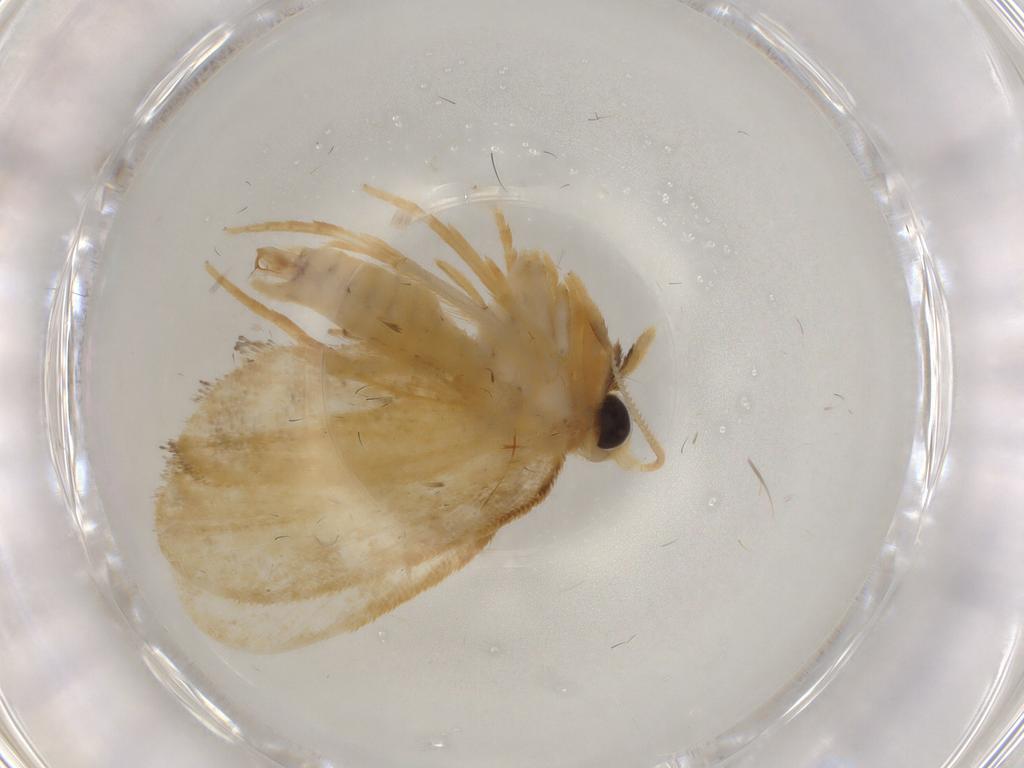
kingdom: Animalia
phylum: Arthropoda
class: Insecta
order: Lepidoptera
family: Psychidae
